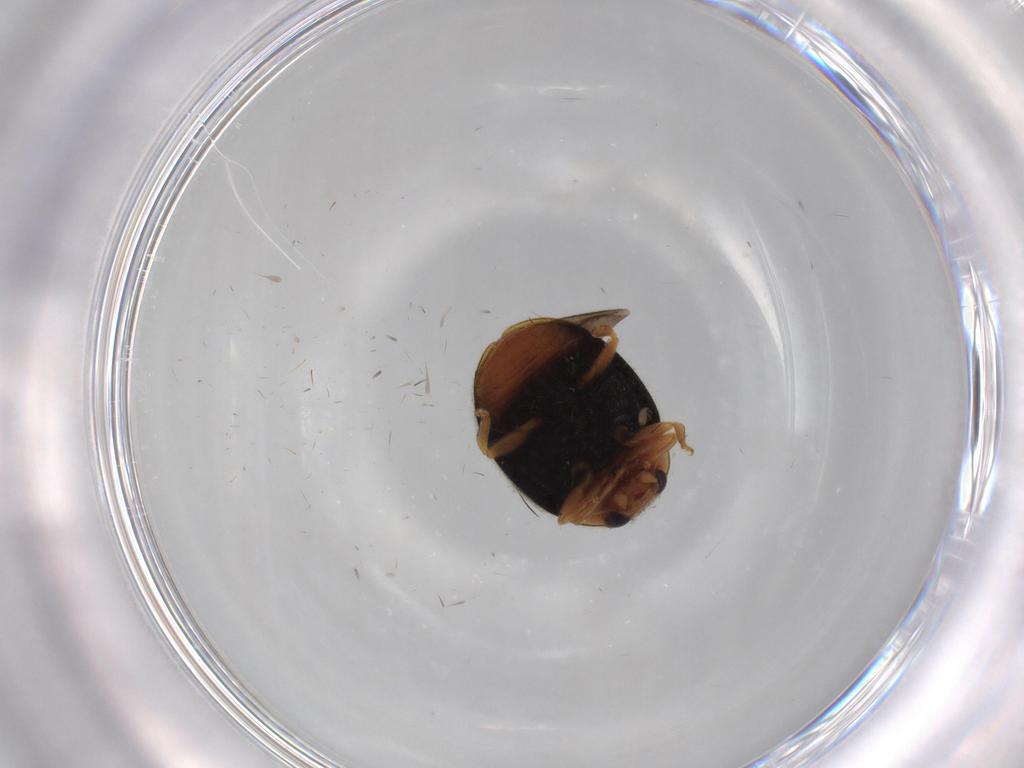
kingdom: Animalia
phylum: Arthropoda
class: Insecta
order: Coleoptera
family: Coccinellidae
